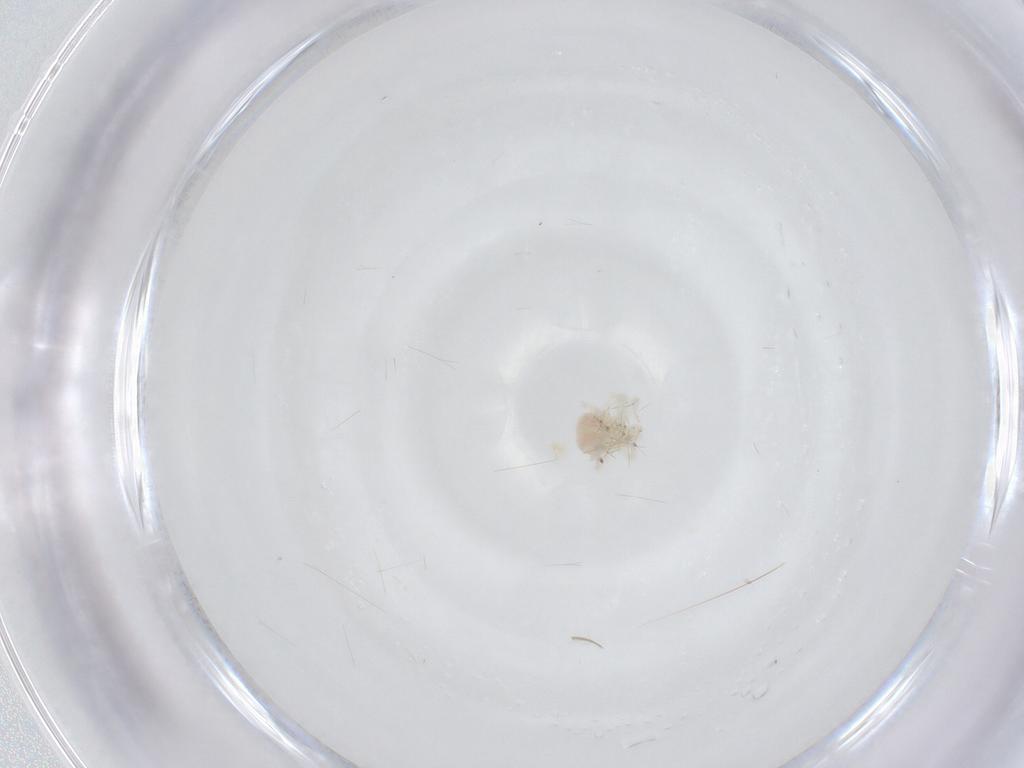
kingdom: Animalia
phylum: Arthropoda
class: Arachnida
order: Trombidiformes
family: Anystidae
